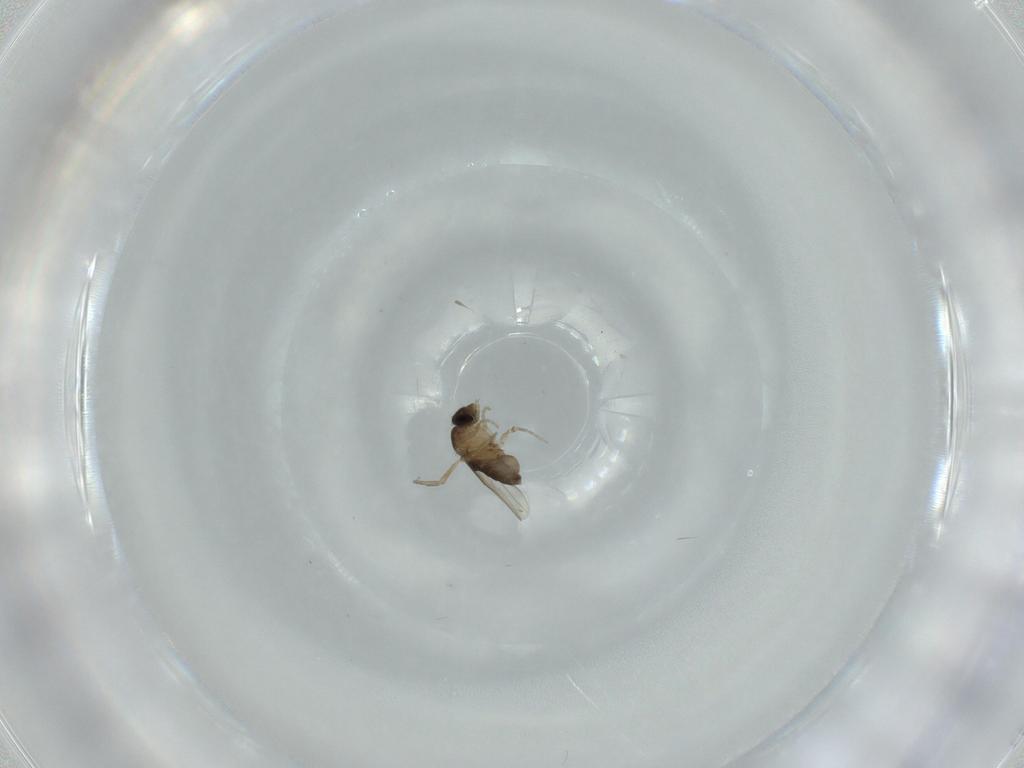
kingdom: Animalia
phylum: Arthropoda
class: Insecta
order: Diptera
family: Phoridae
